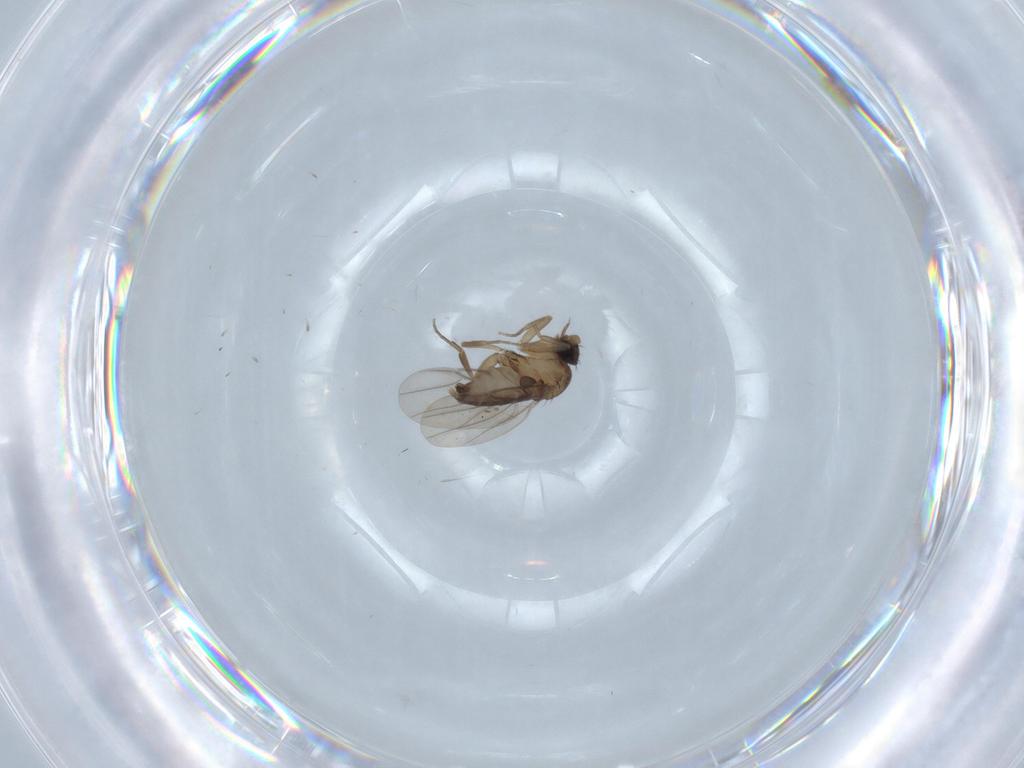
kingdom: Animalia
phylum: Arthropoda
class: Insecta
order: Diptera
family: Phoridae
